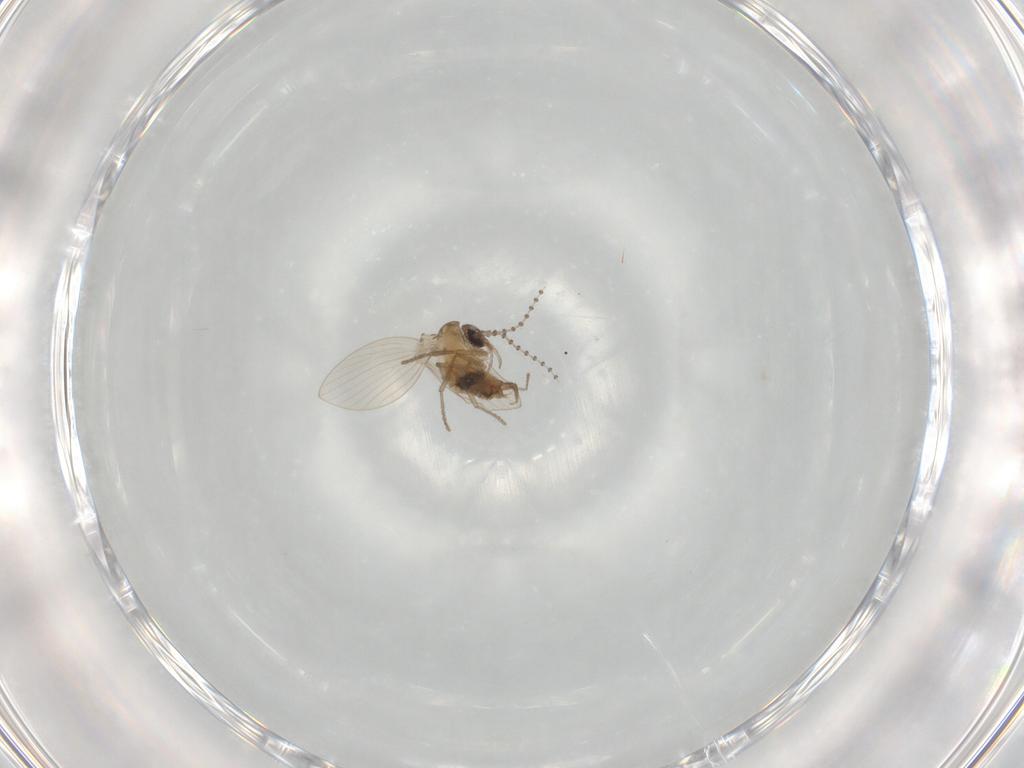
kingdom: Animalia
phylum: Arthropoda
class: Insecta
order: Diptera
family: Psychodidae
